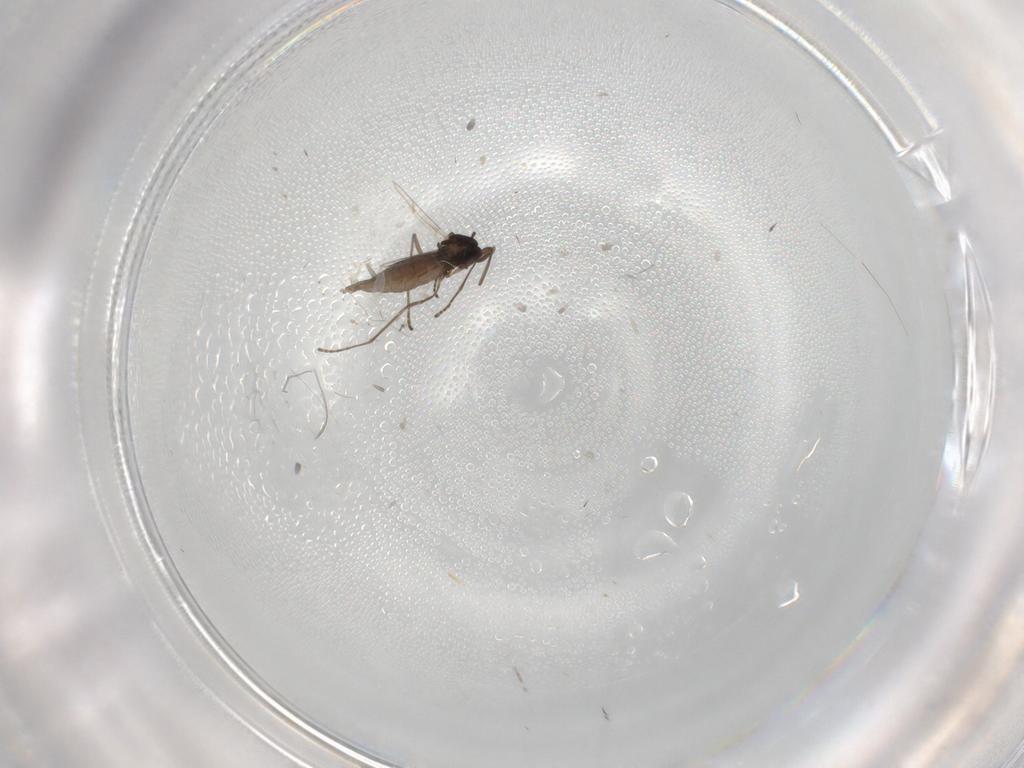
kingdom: Animalia
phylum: Arthropoda
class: Insecta
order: Diptera
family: Cecidomyiidae
